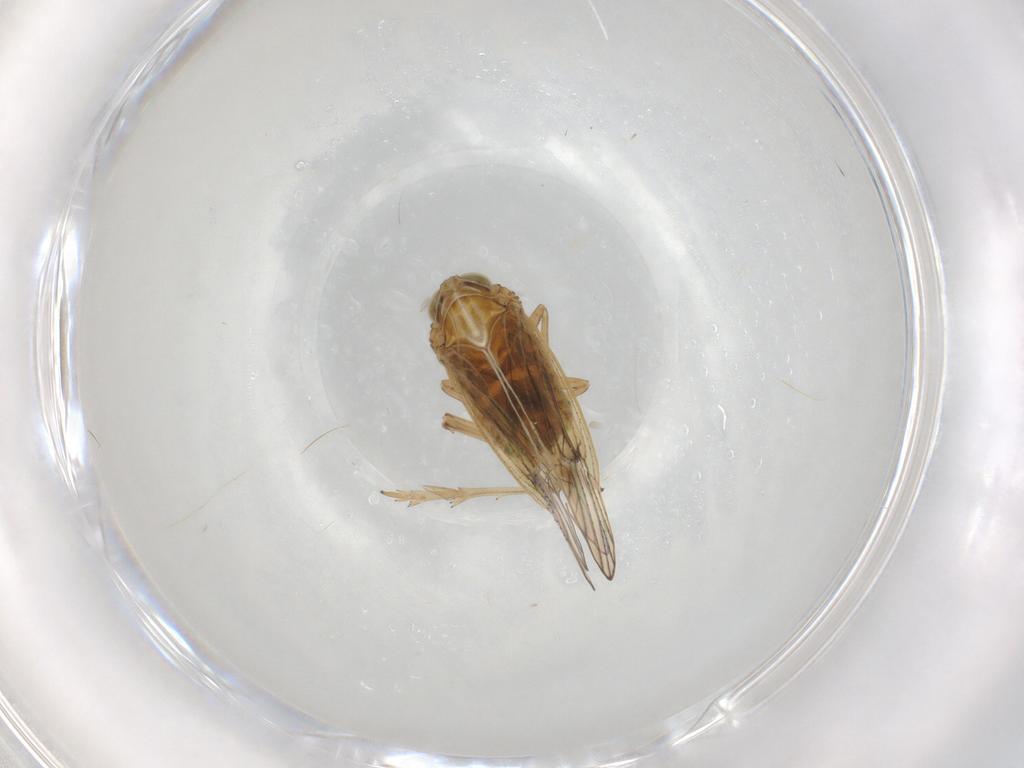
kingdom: Animalia
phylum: Arthropoda
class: Insecta
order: Hemiptera
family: Delphacidae
